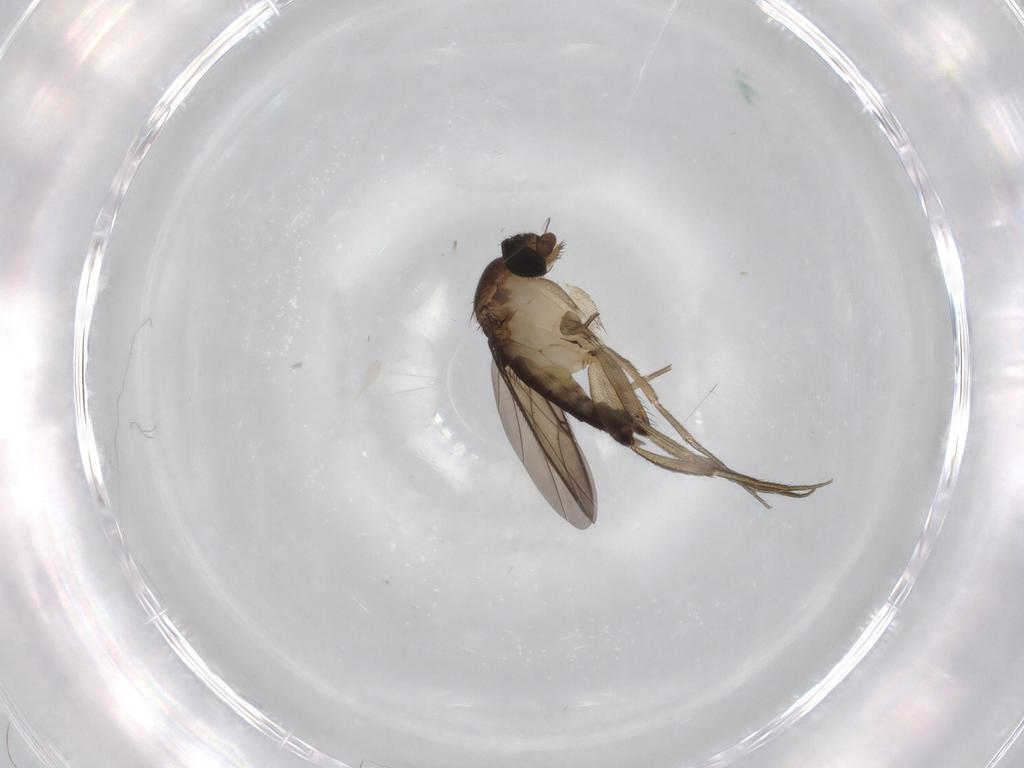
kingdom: Animalia
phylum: Arthropoda
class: Insecta
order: Diptera
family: Phoridae
